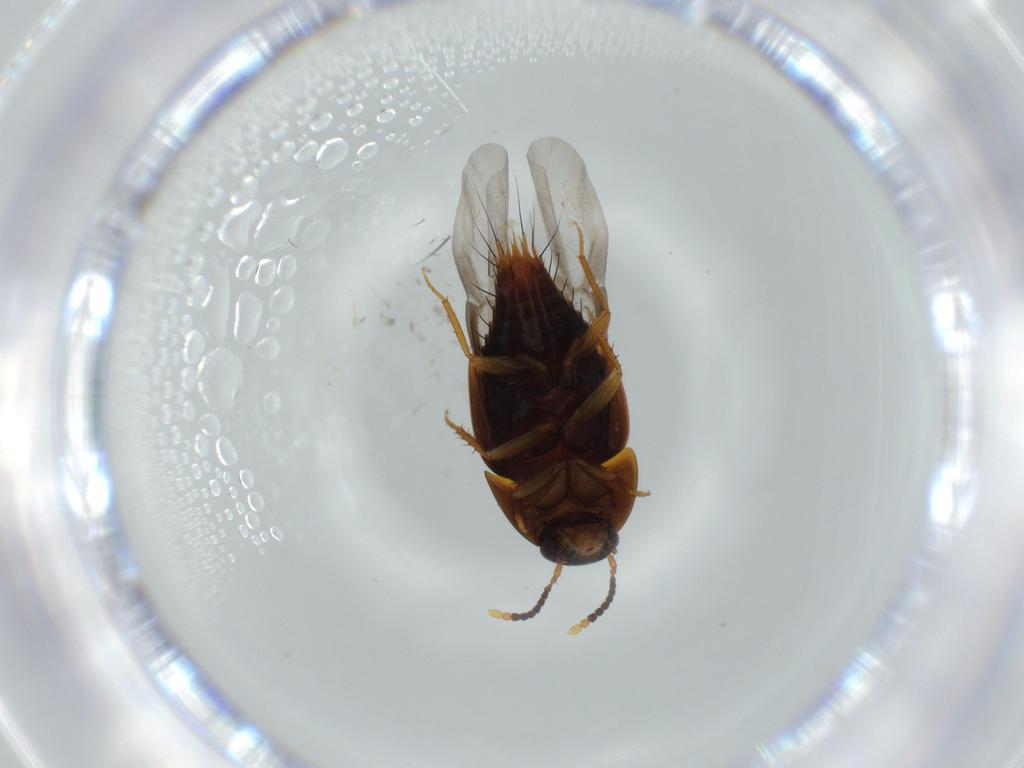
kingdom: Animalia
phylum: Arthropoda
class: Insecta
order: Coleoptera
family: Staphylinidae
